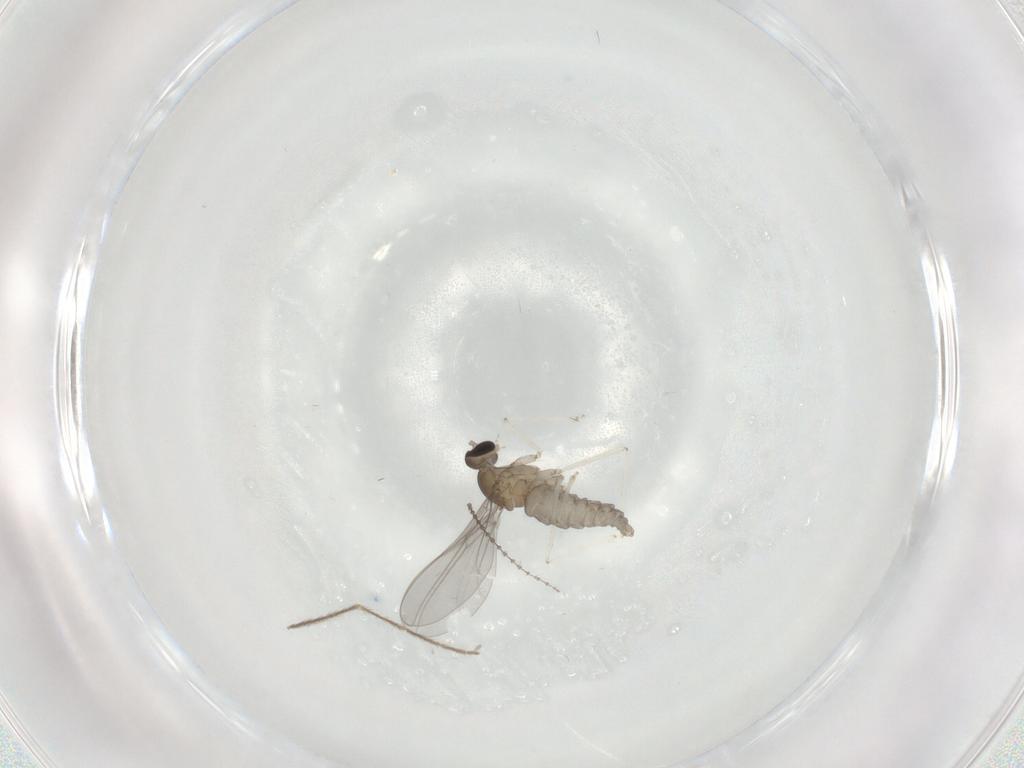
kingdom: Animalia
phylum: Arthropoda
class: Insecta
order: Diptera
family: Cecidomyiidae
